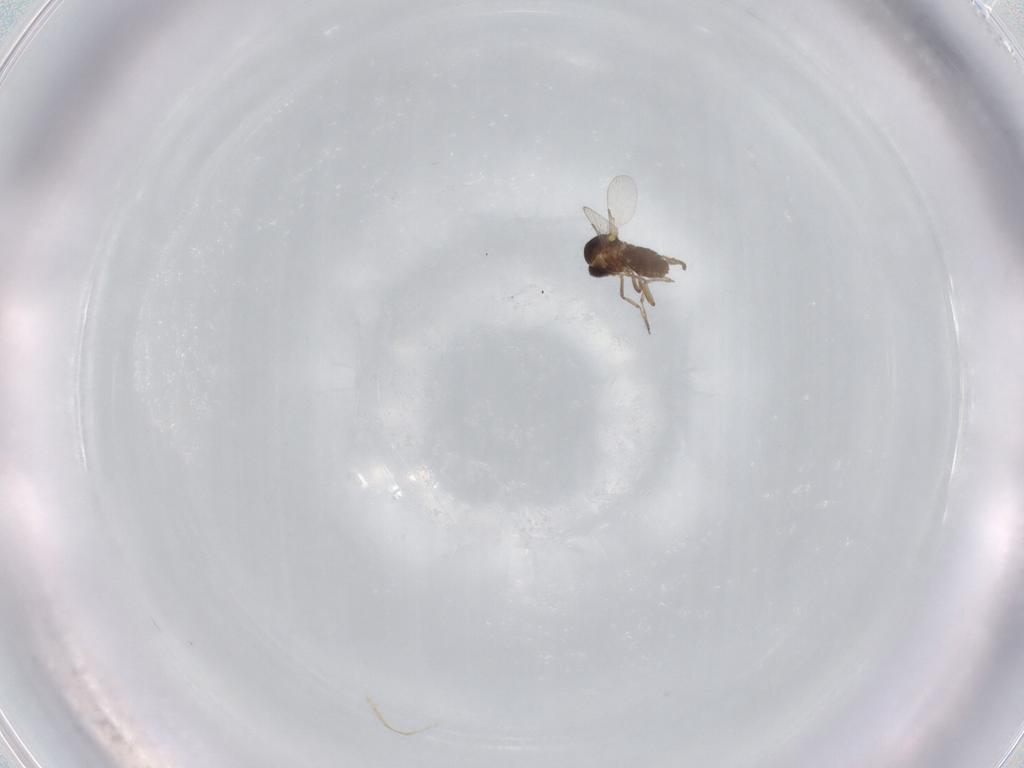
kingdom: Animalia
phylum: Arthropoda
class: Insecta
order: Diptera
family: Ceratopogonidae
